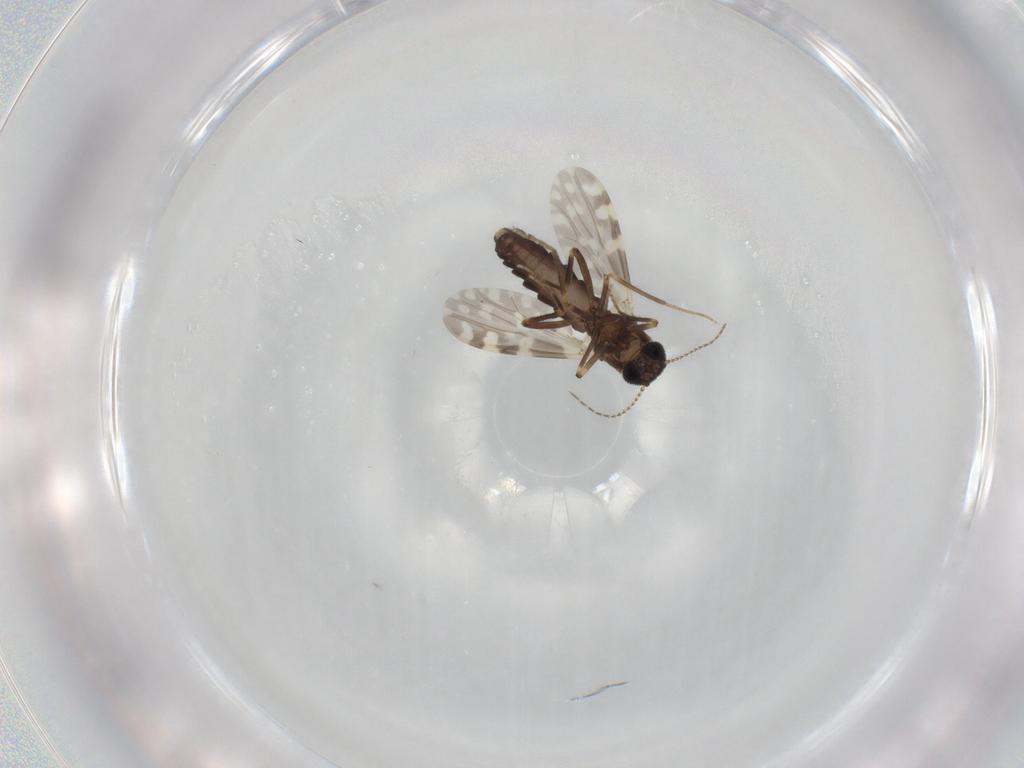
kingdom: Animalia
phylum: Arthropoda
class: Insecta
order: Diptera
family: Ceratopogonidae
